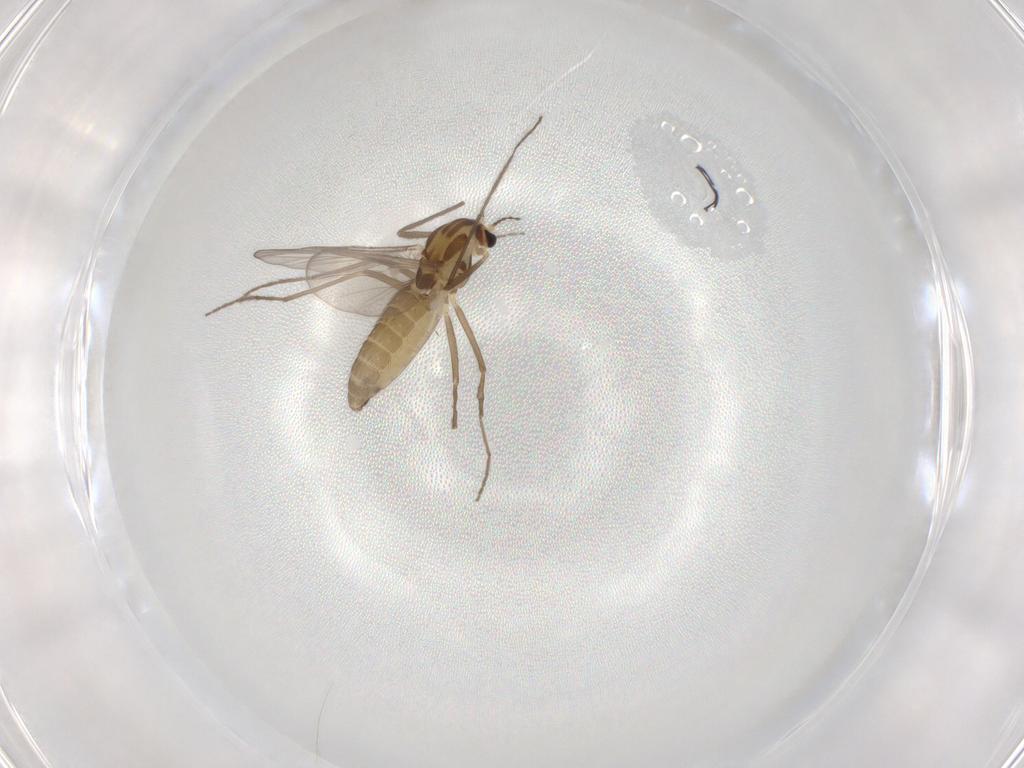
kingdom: Animalia
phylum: Arthropoda
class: Insecta
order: Diptera
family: Chironomidae
